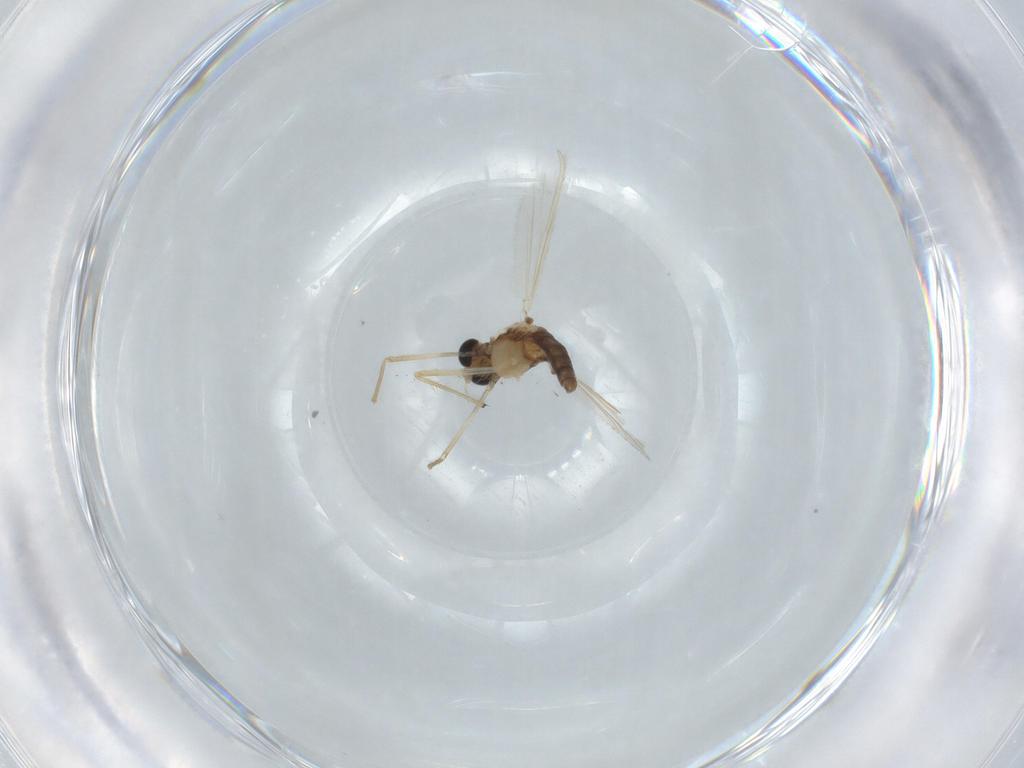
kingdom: Animalia
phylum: Arthropoda
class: Insecta
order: Diptera
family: Chironomidae
